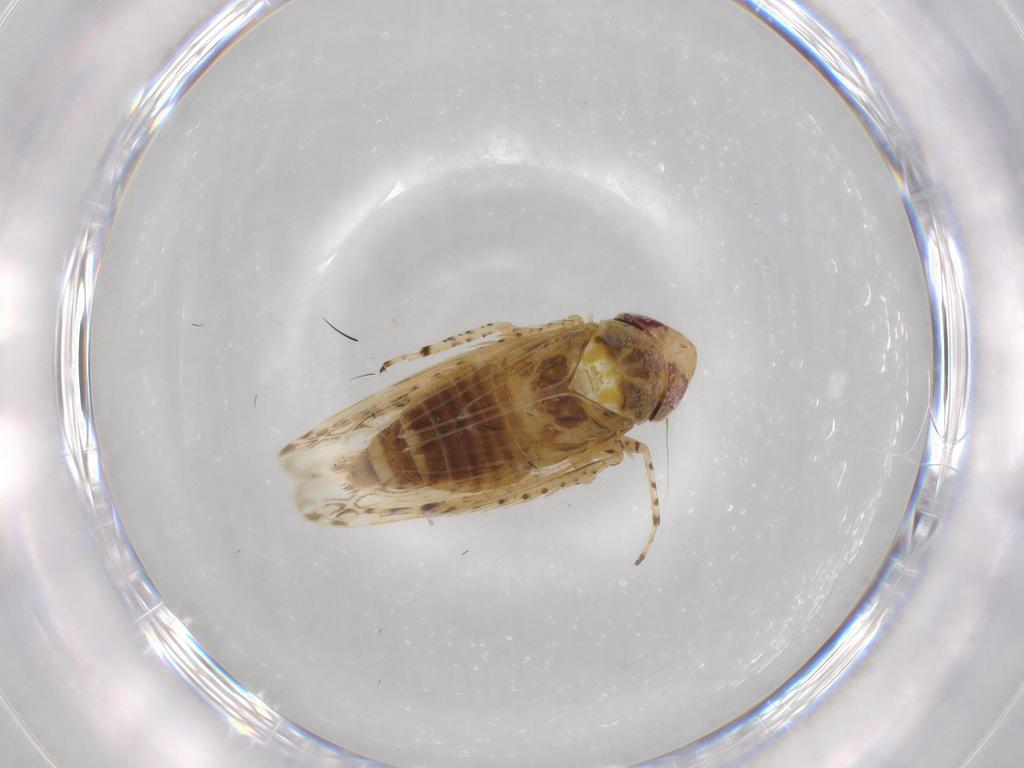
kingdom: Animalia
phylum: Arthropoda
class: Insecta
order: Hemiptera
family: Cicadellidae
